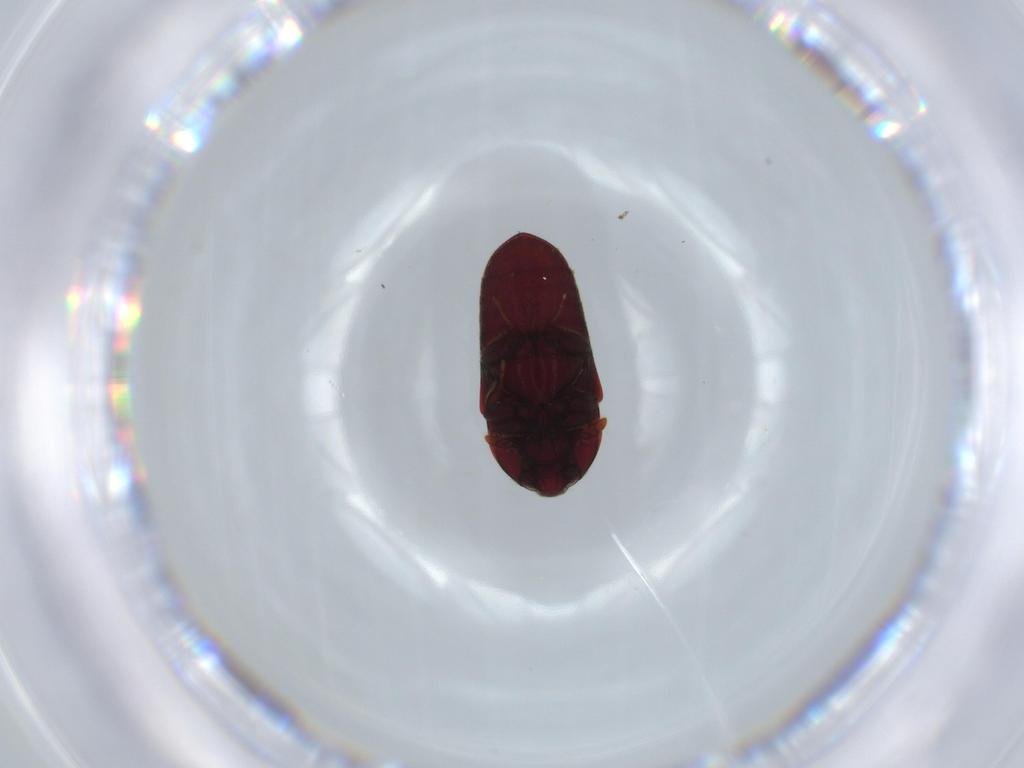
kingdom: Animalia
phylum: Arthropoda
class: Insecta
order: Coleoptera
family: Throscidae
